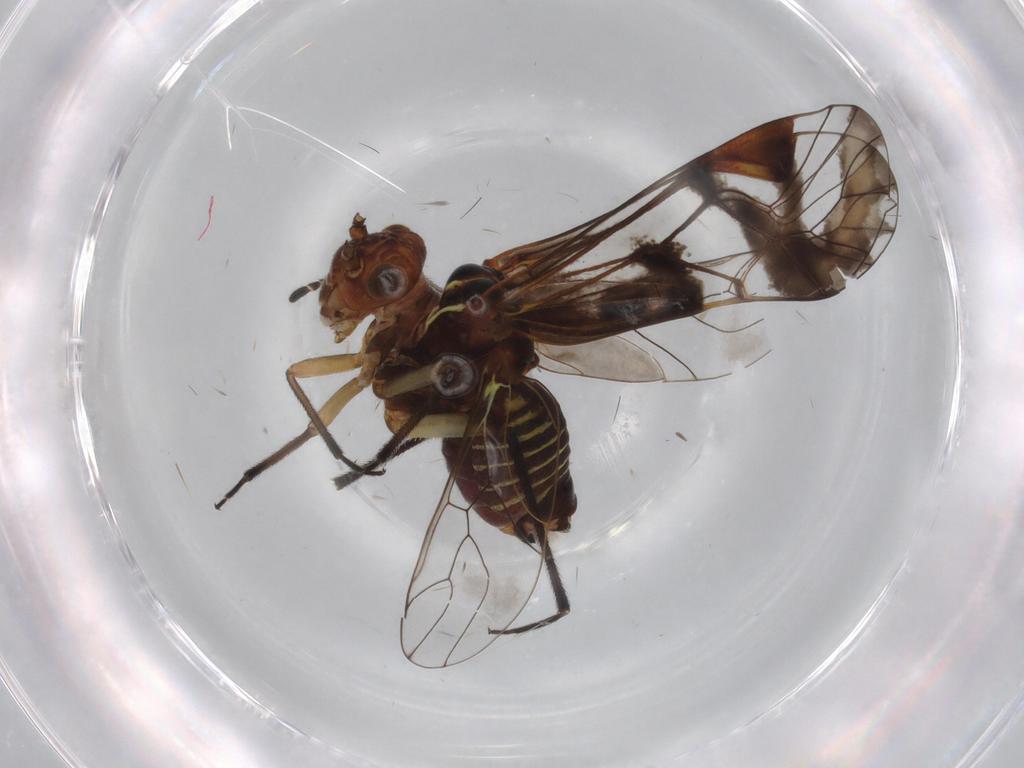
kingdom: Animalia
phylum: Arthropoda
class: Insecta
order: Psocodea
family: Psocidae
